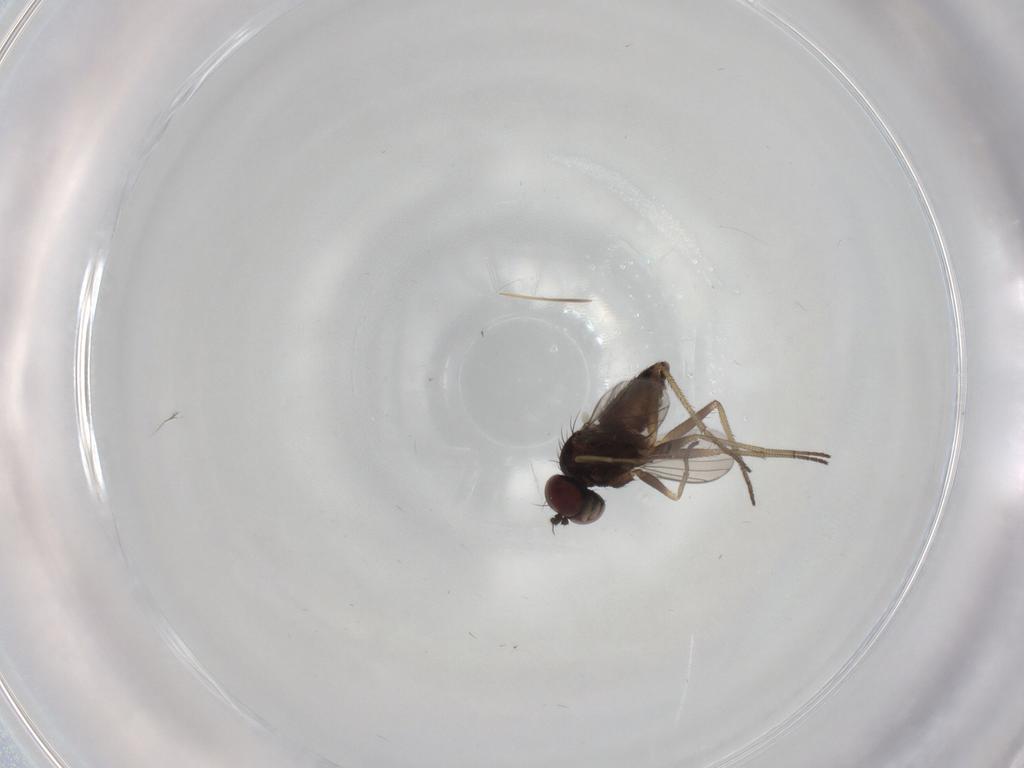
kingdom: Animalia
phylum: Arthropoda
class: Insecta
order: Diptera
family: Dolichopodidae
